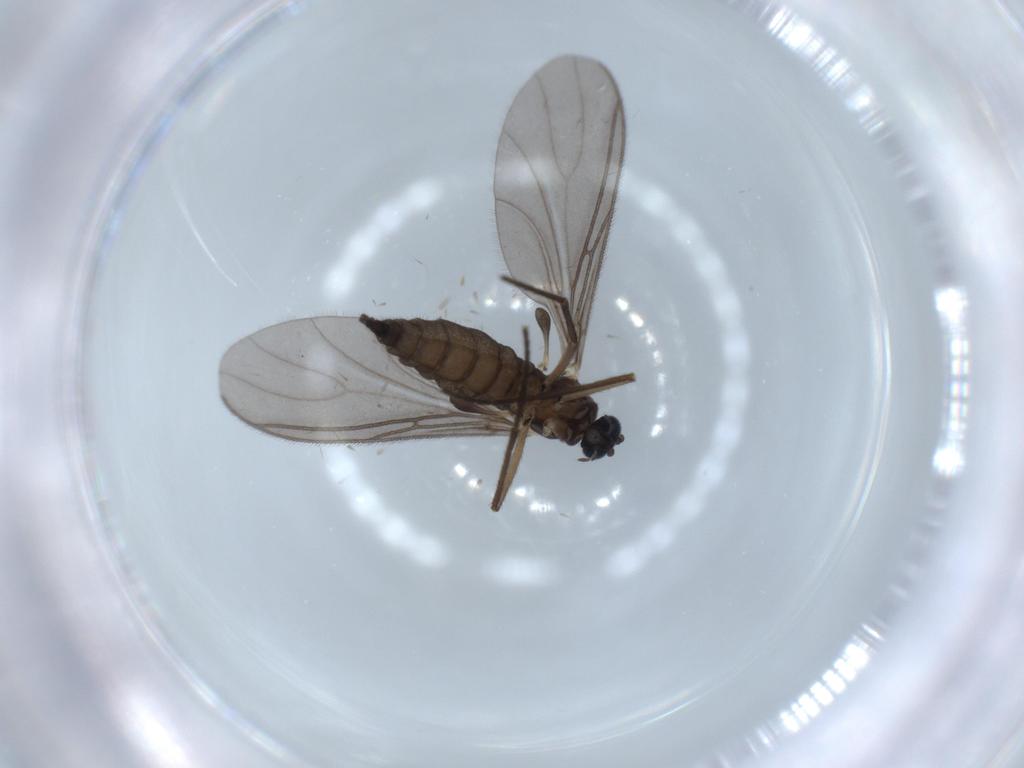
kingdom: Animalia
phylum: Arthropoda
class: Insecta
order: Diptera
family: Sciaridae
